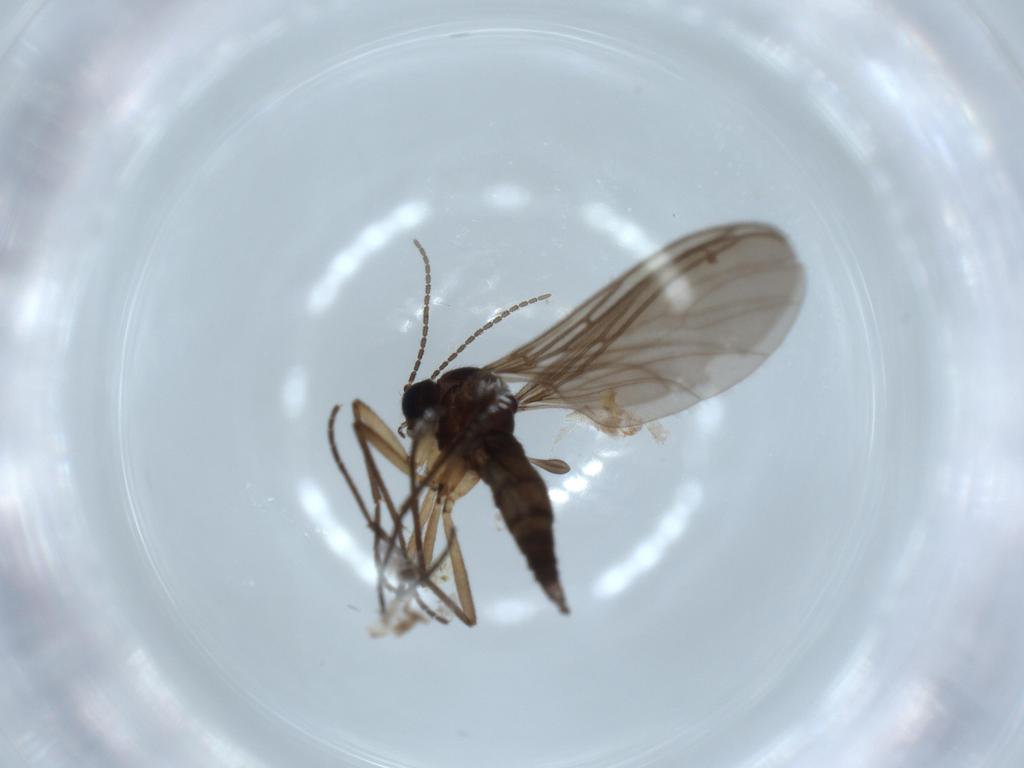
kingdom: Animalia
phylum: Arthropoda
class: Insecta
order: Diptera
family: Sciaridae
